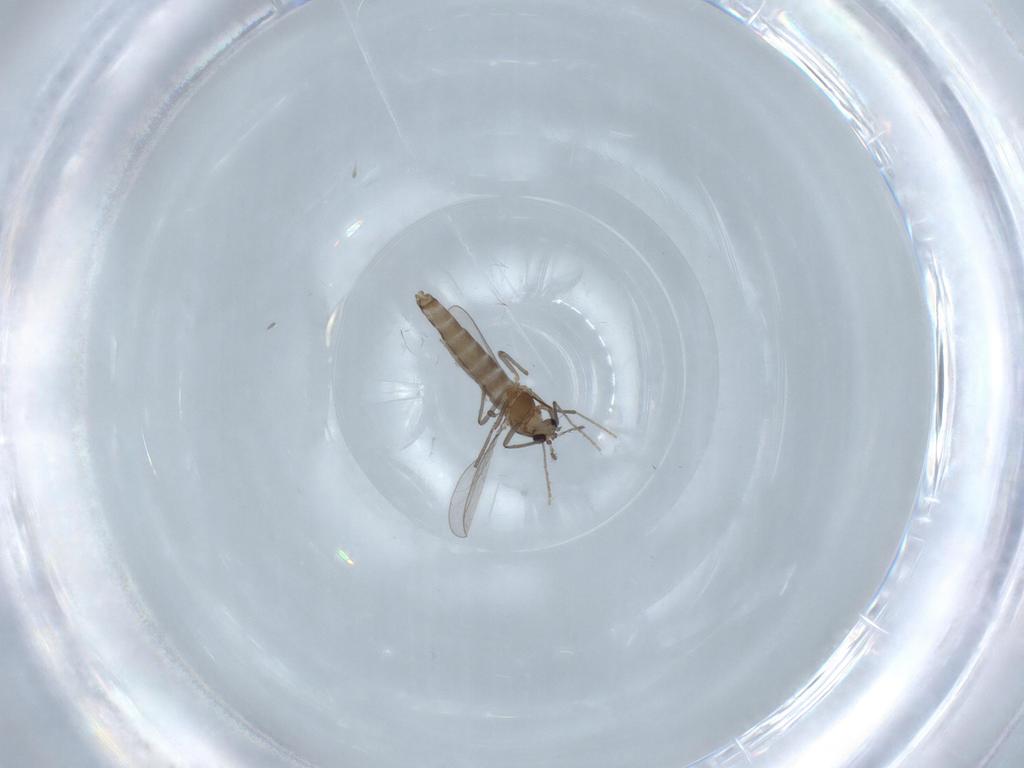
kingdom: Animalia
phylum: Arthropoda
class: Insecta
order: Diptera
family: Chironomidae
